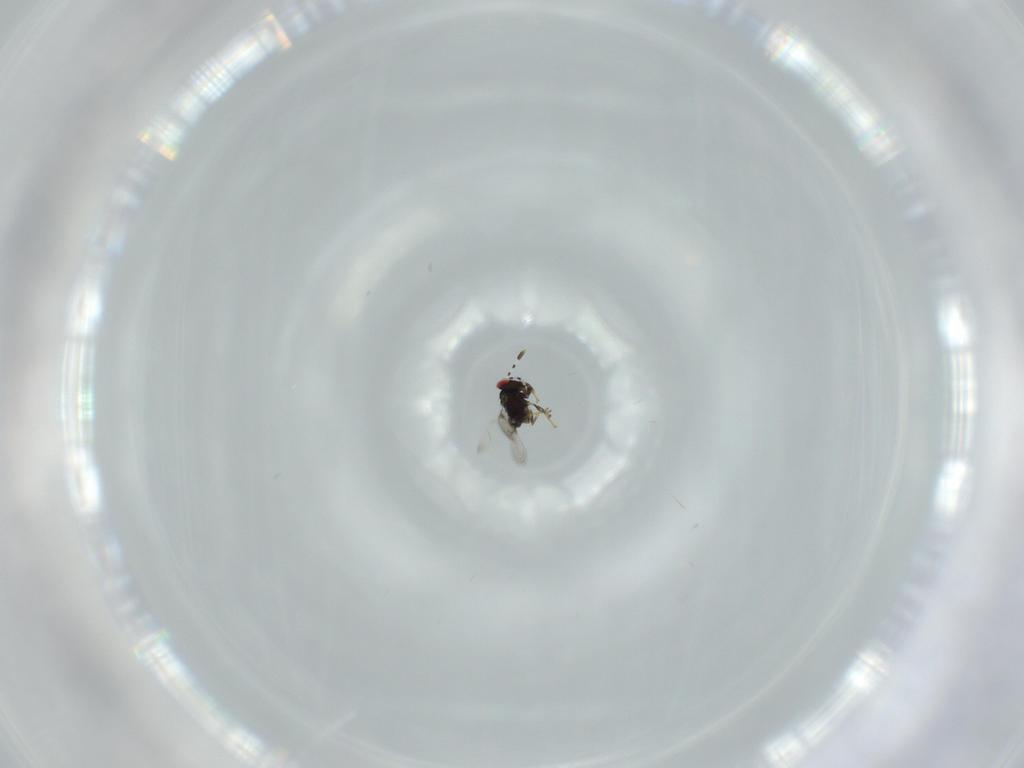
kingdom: Animalia
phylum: Arthropoda
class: Insecta
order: Hymenoptera
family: Azotidae
